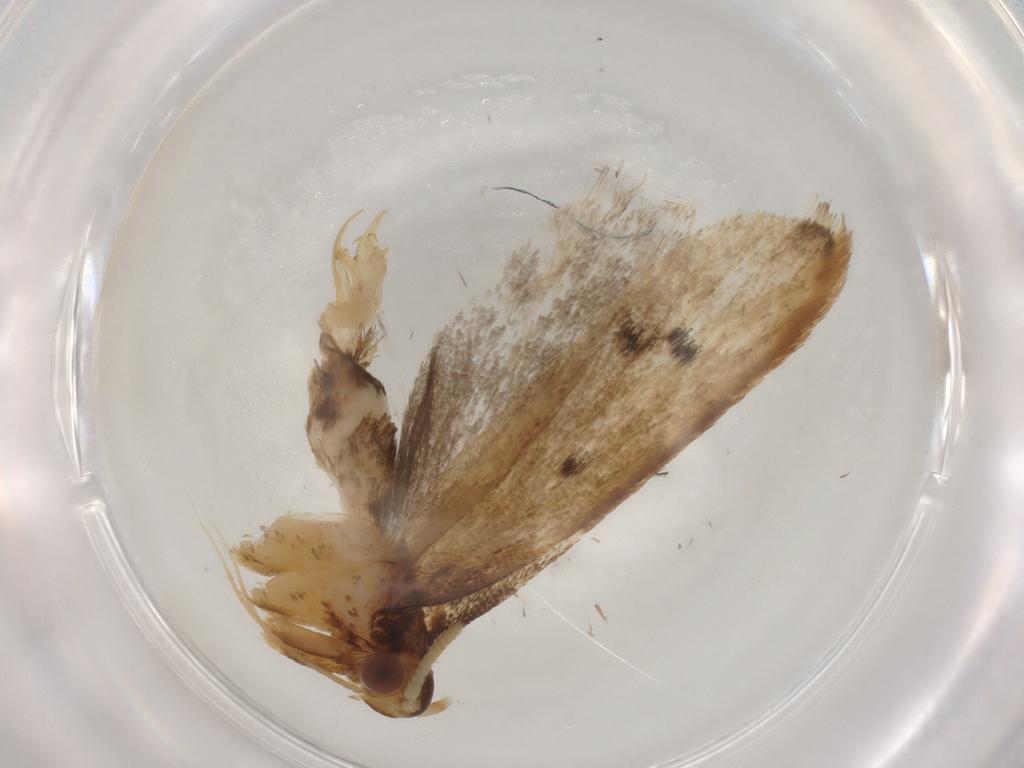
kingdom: Animalia
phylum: Arthropoda
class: Insecta
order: Lepidoptera
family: Lecithoceridae
